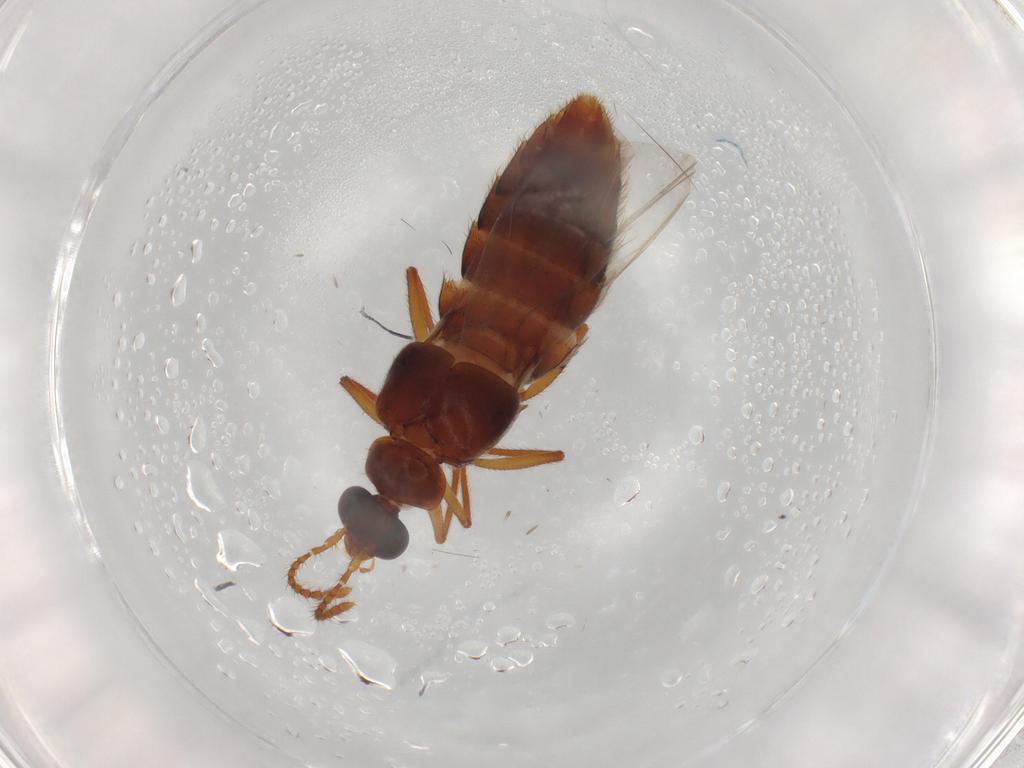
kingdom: Animalia
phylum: Arthropoda
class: Insecta
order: Coleoptera
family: Staphylinidae
